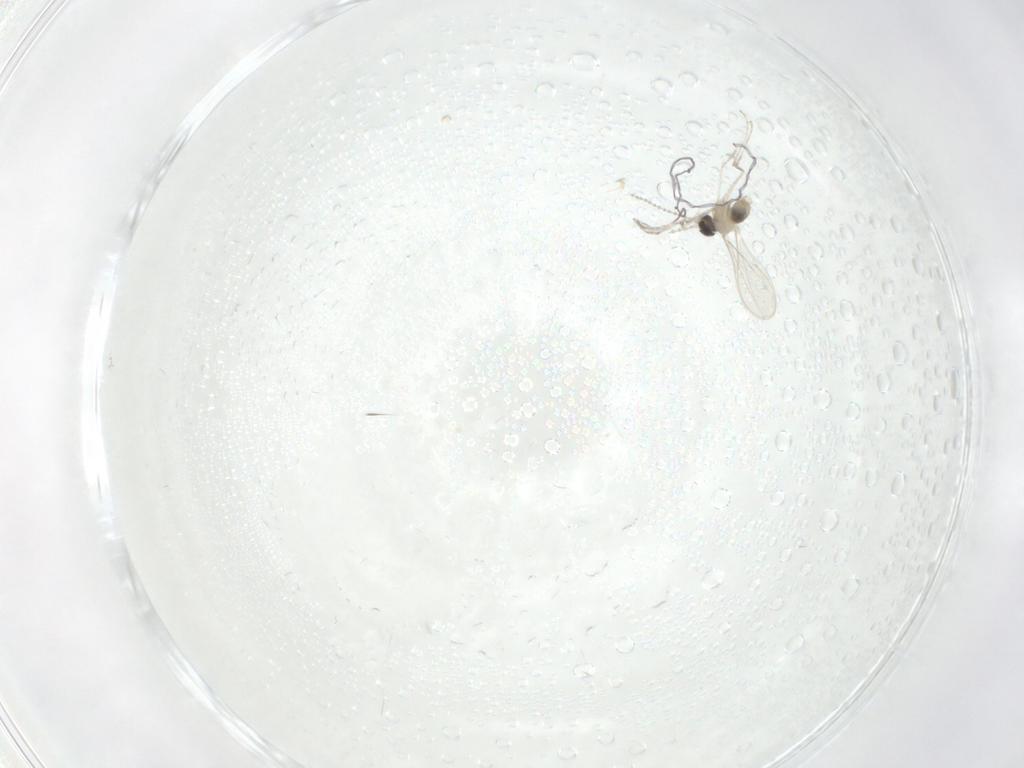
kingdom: Animalia
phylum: Arthropoda
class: Insecta
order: Diptera
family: Cecidomyiidae
